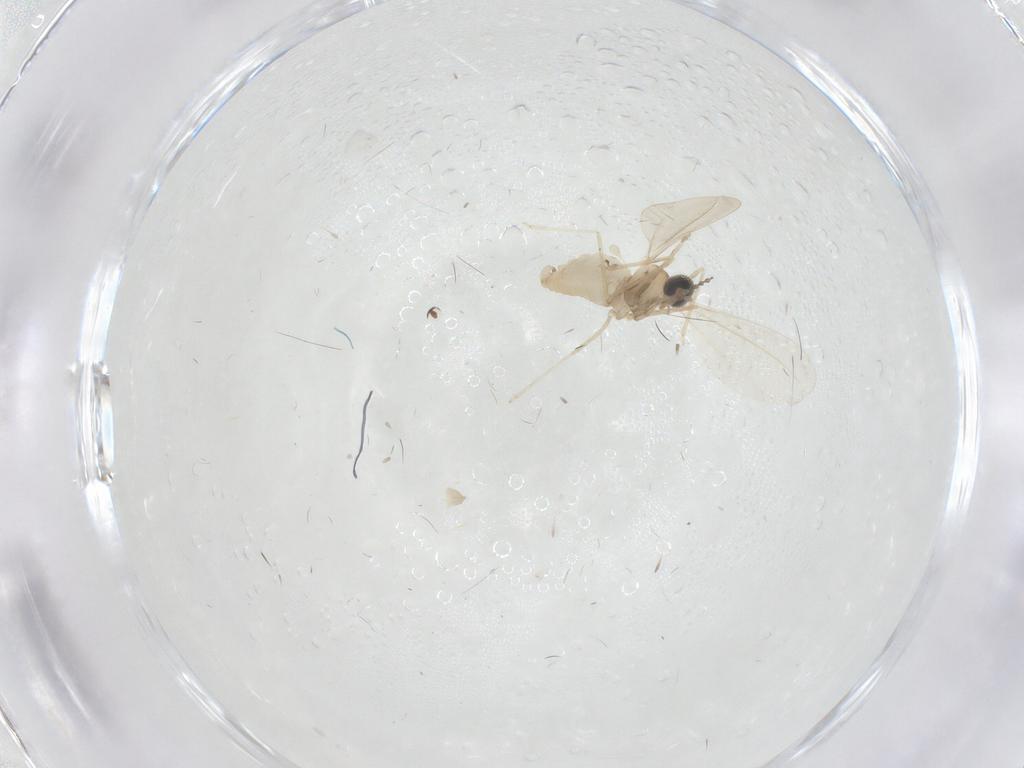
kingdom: Animalia
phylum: Arthropoda
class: Insecta
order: Diptera
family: Cecidomyiidae
